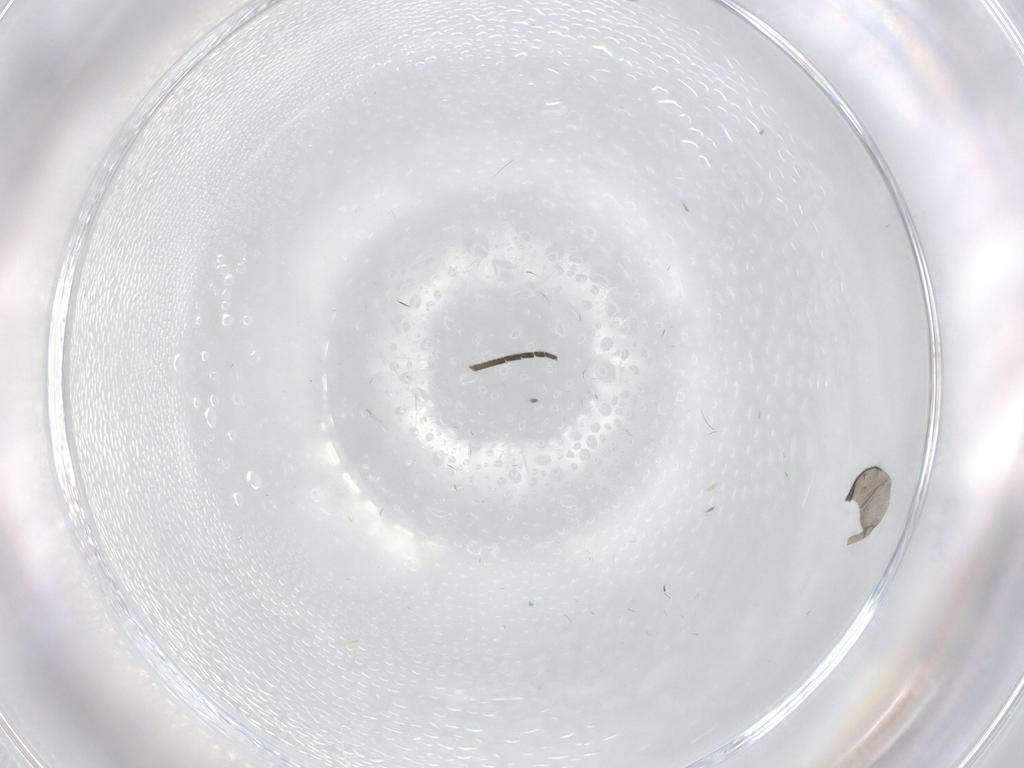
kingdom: Animalia
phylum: Arthropoda
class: Insecta
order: Diptera
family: Sciaridae
